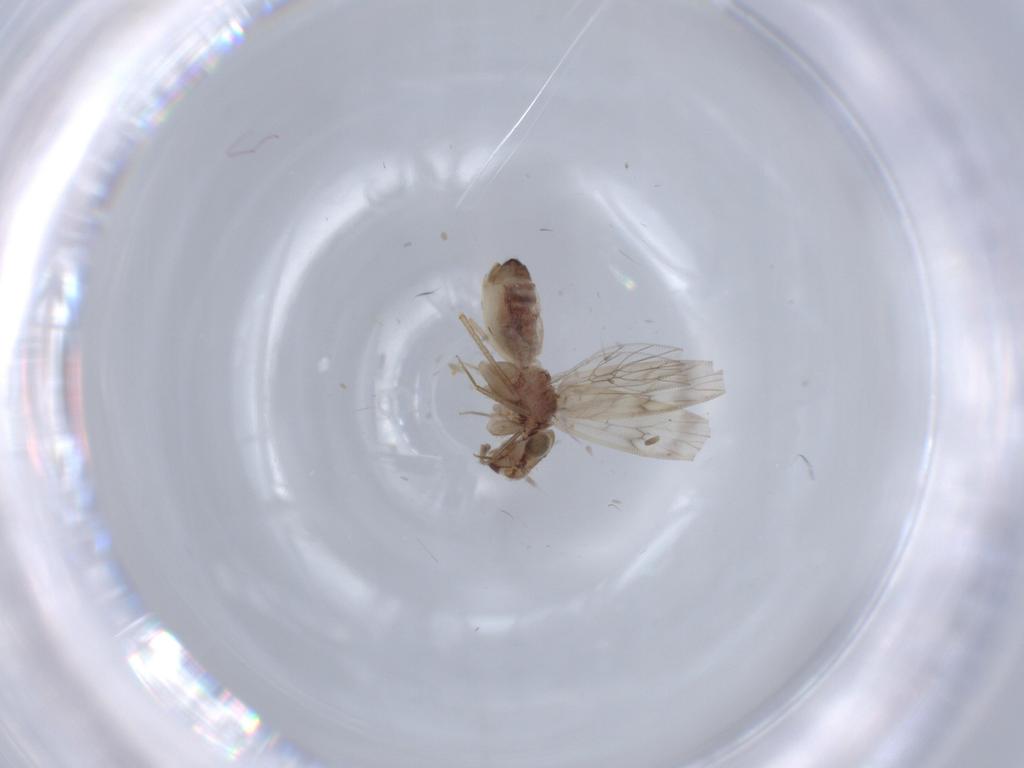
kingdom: Animalia
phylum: Arthropoda
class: Insecta
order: Psocodea
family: Lepidopsocidae
